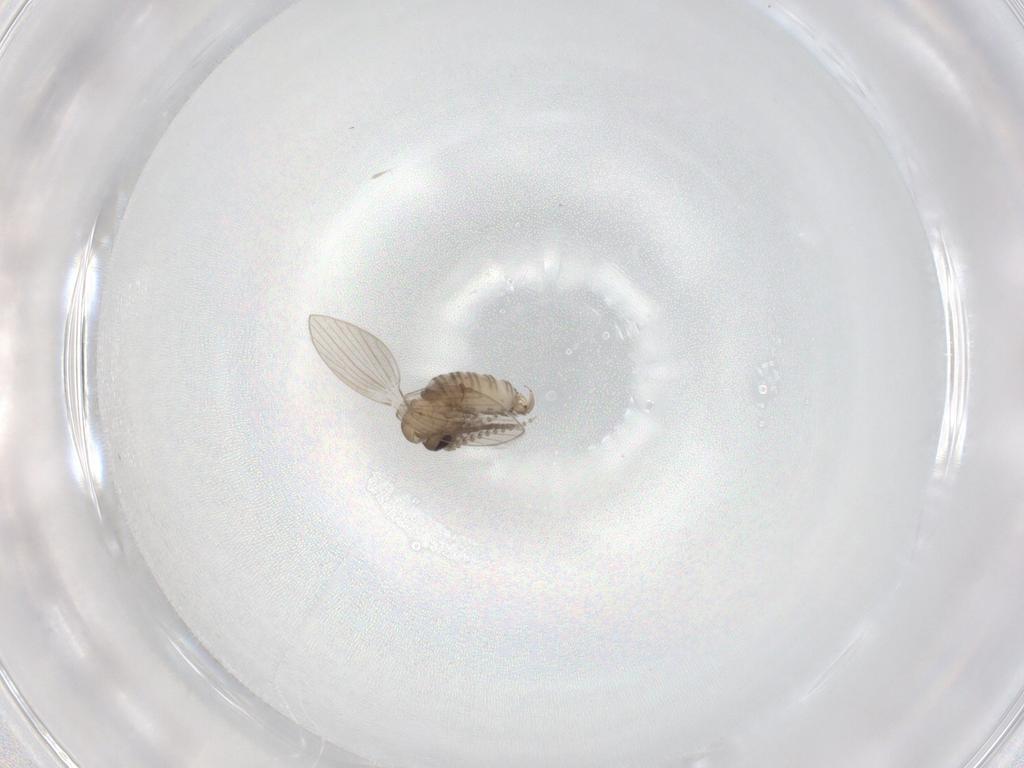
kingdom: Animalia
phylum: Arthropoda
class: Insecta
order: Diptera
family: Psychodidae
